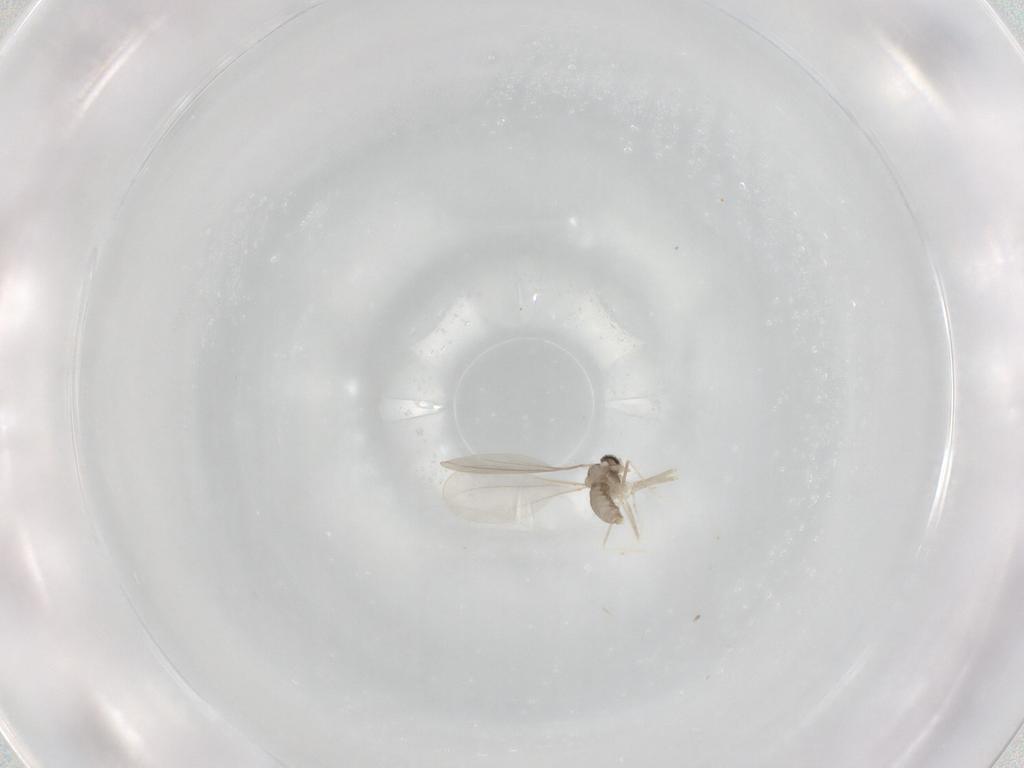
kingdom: Animalia
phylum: Arthropoda
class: Insecta
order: Diptera
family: Phoridae
